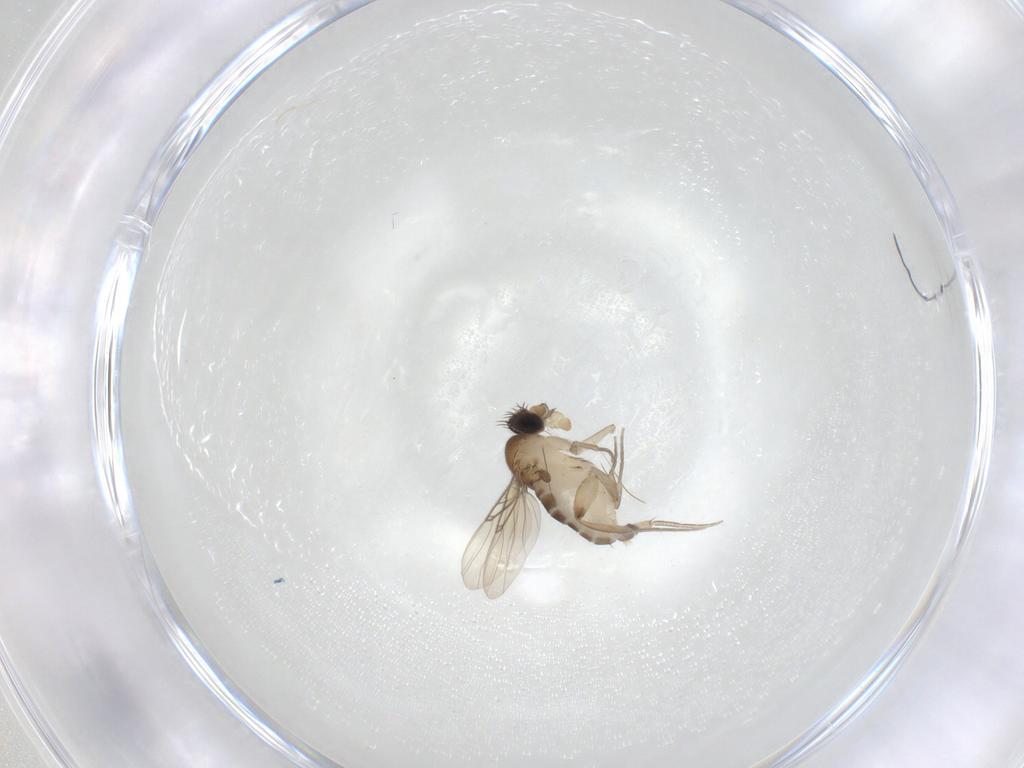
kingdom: Animalia
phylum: Arthropoda
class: Insecta
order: Diptera
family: Phoridae
